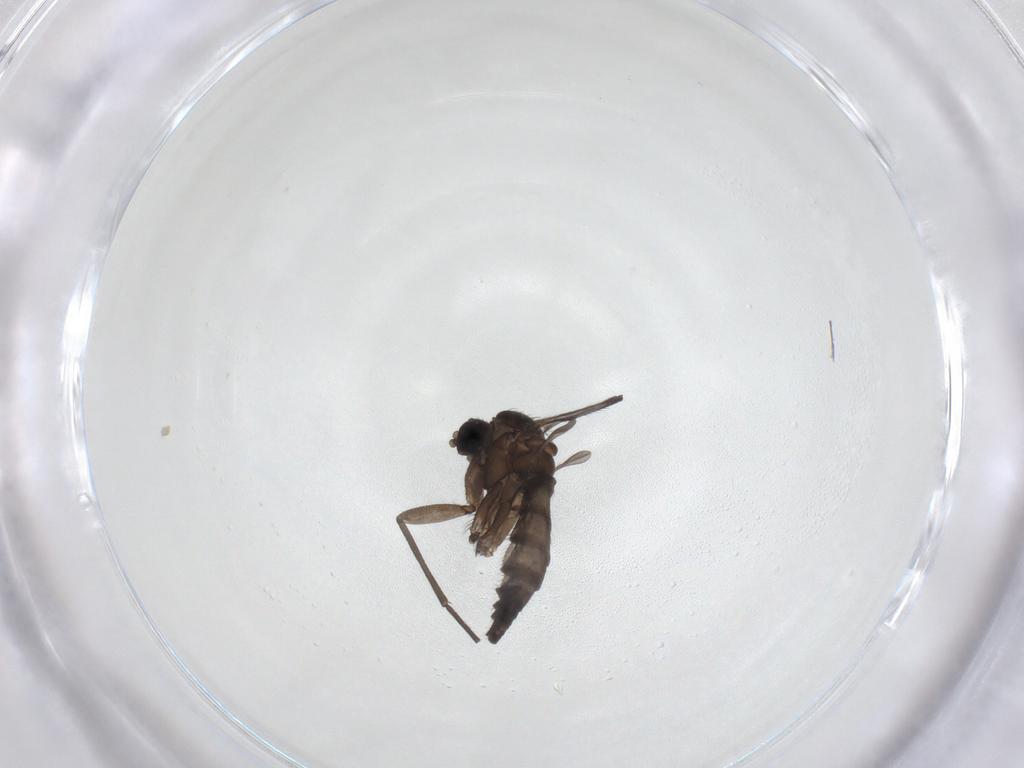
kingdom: Animalia
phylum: Arthropoda
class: Insecta
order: Diptera
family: Sciaridae
